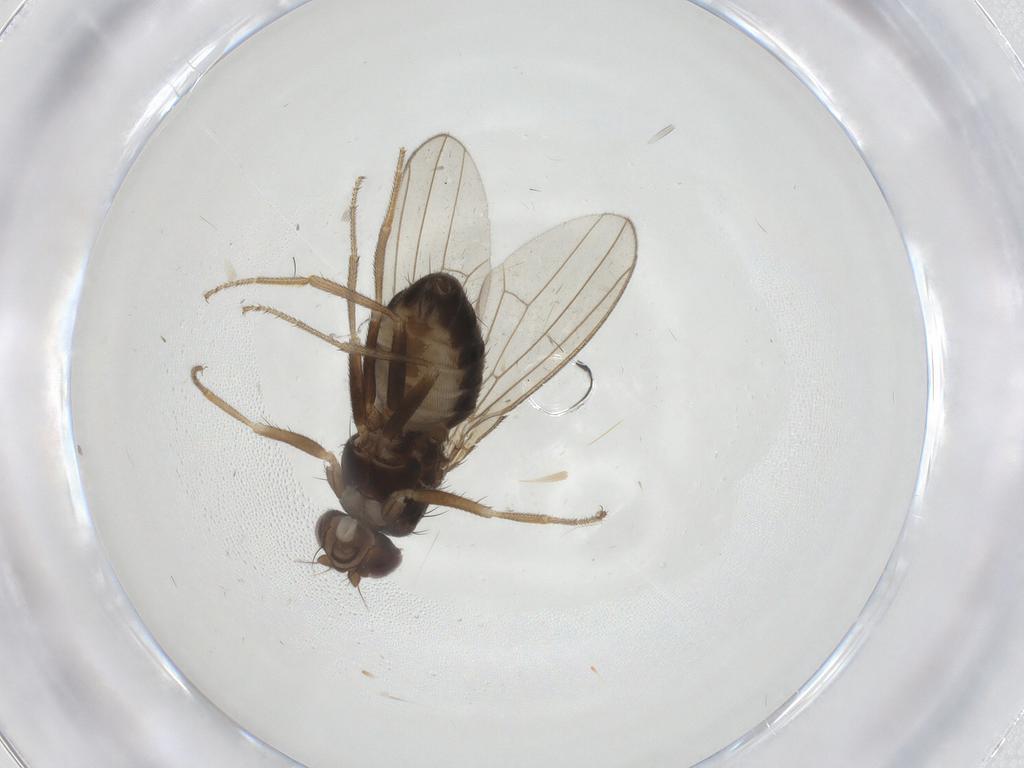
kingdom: Animalia
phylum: Arthropoda
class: Insecta
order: Diptera
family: Drosophilidae
